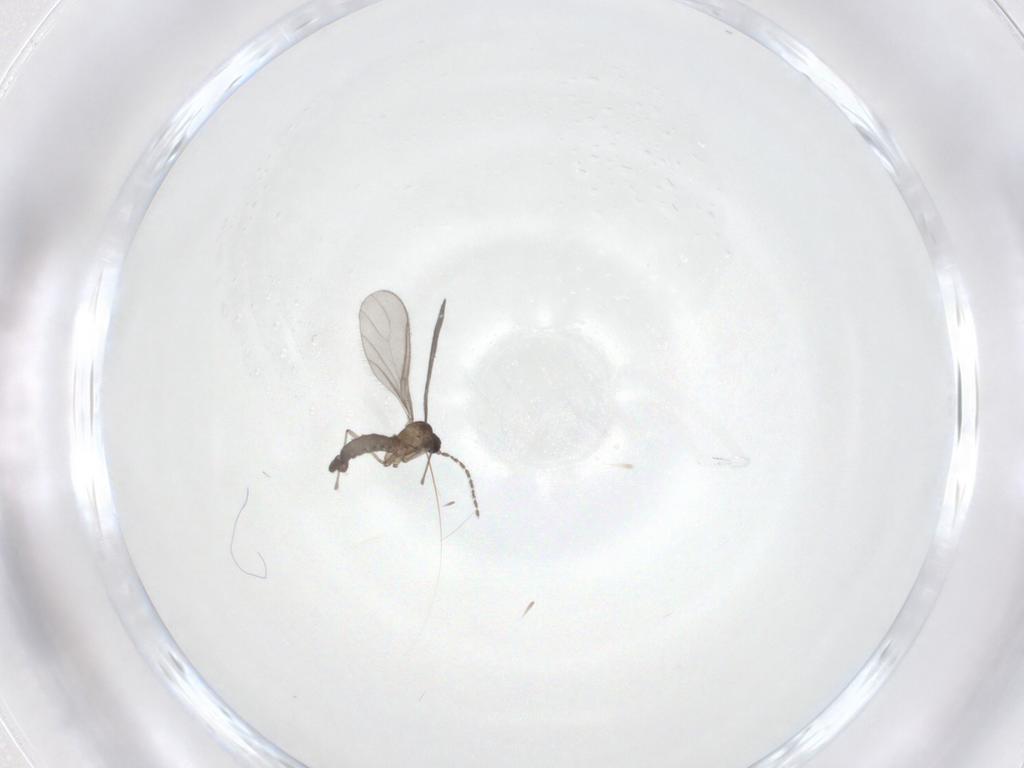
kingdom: Animalia
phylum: Arthropoda
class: Insecta
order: Diptera
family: Sciaridae
